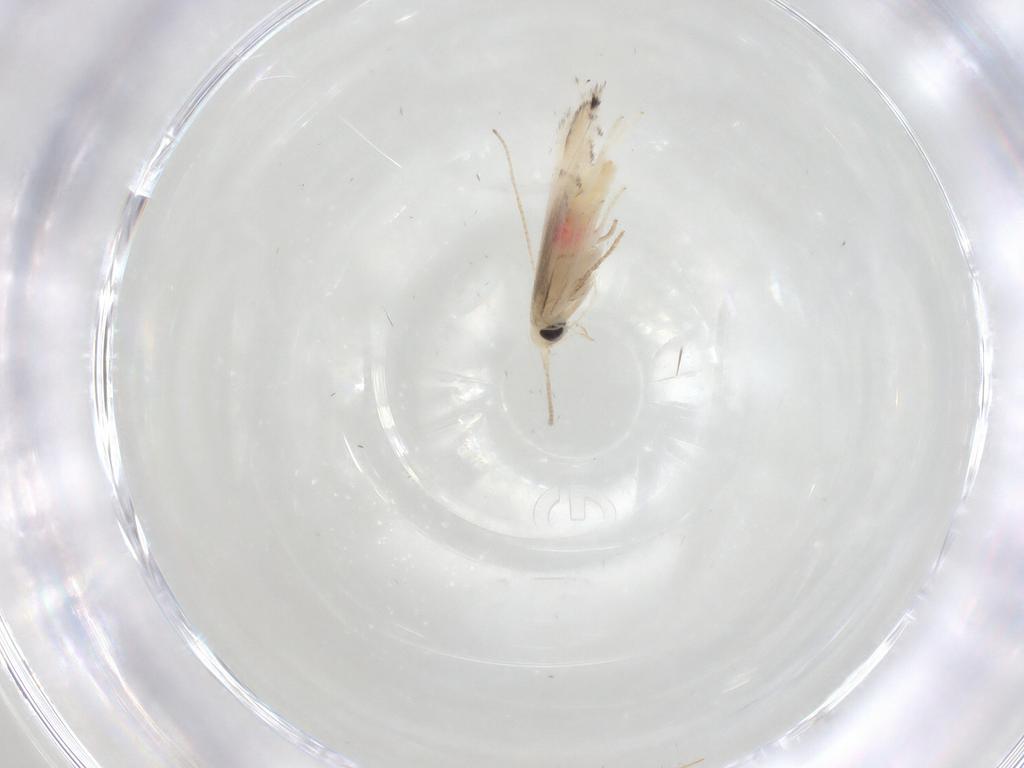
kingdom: Animalia
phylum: Arthropoda
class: Insecta
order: Lepidoptera
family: Gracillariidae
